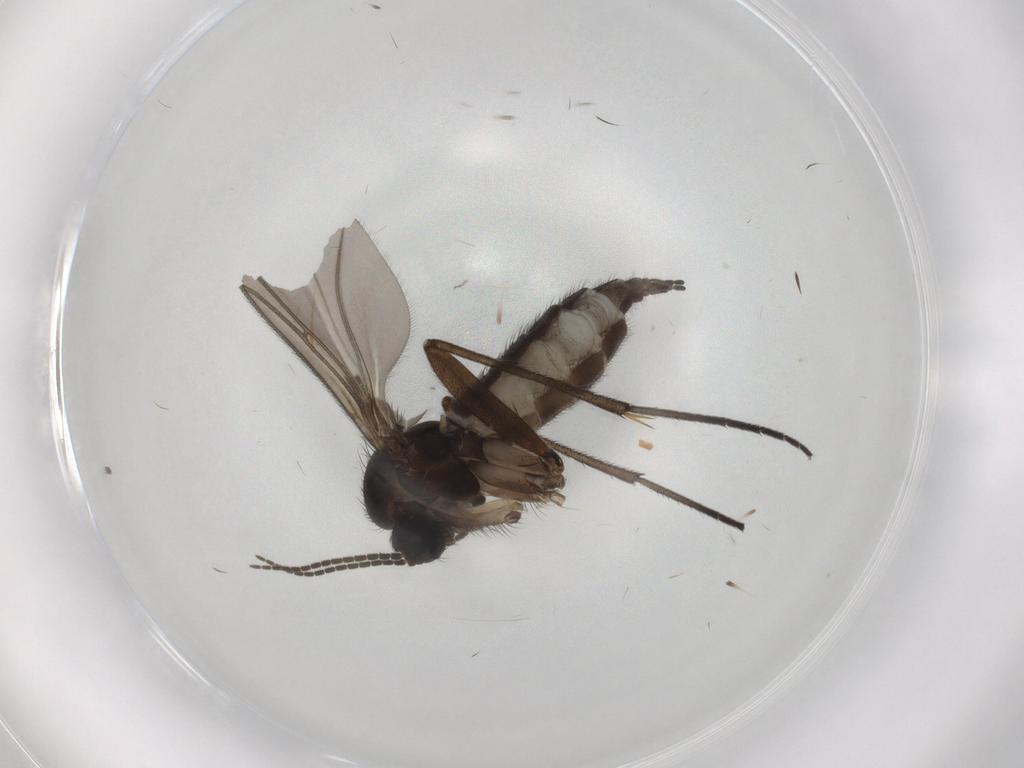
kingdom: Animalia
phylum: Arthropoda
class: Insecta
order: Diptera
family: Sciaridae
